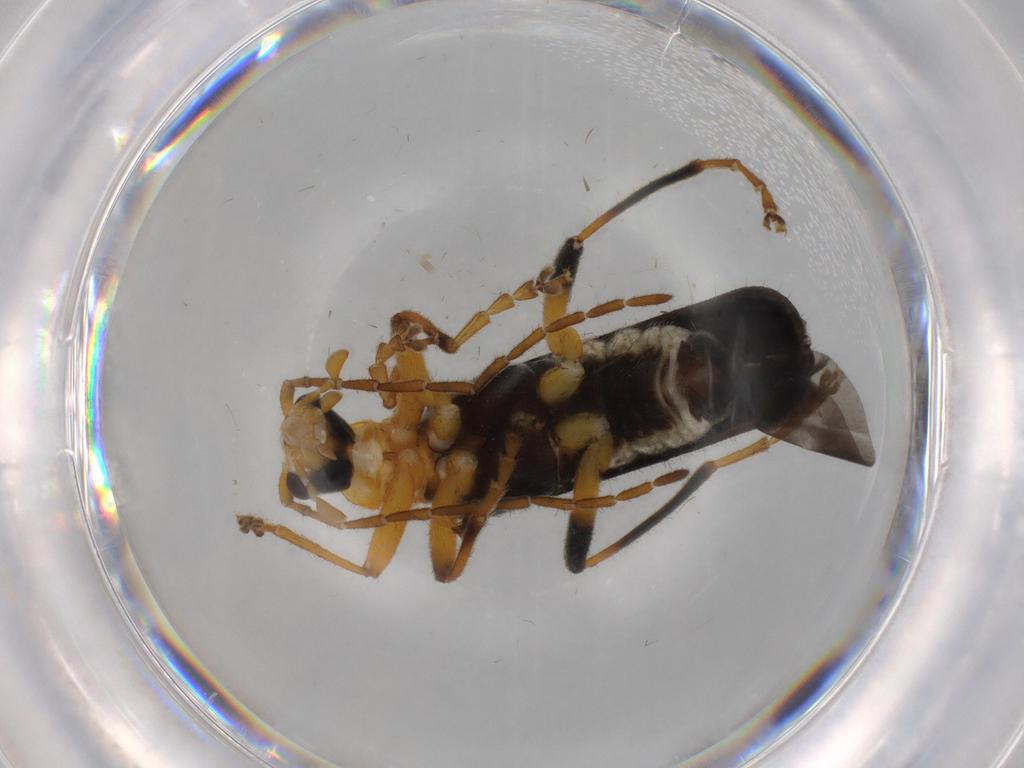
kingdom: Animalia
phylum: Arthropoda
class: Insecta
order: Coleoptera
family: Cantharidae
